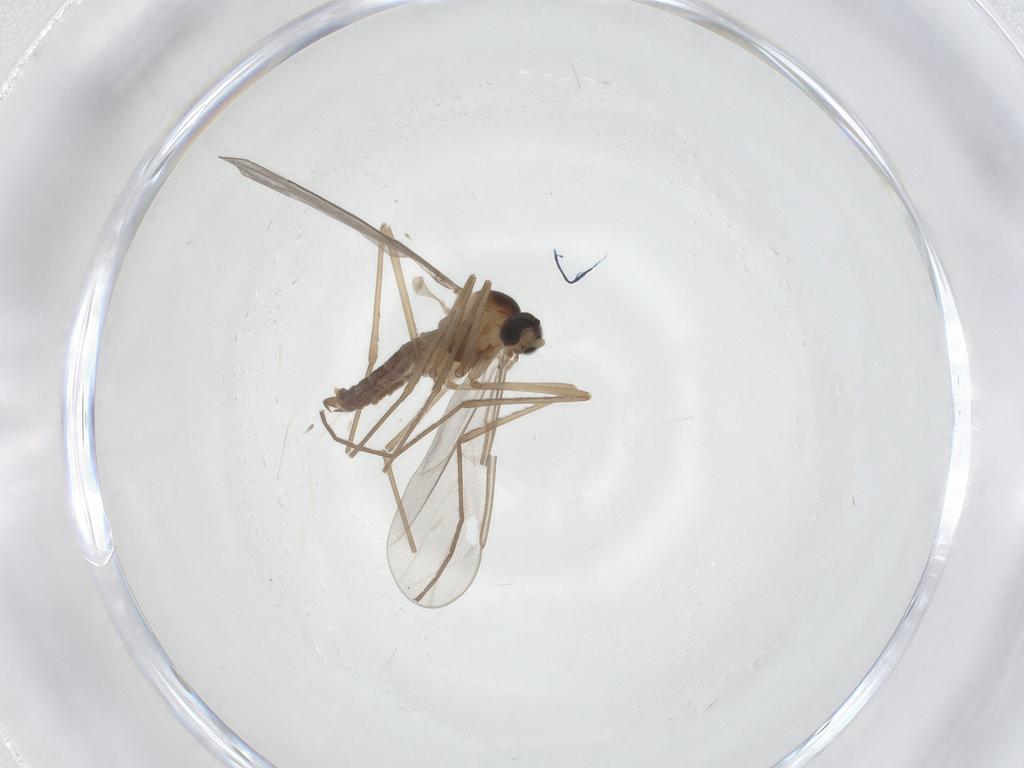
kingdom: Animalia
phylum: Arthropoda
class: Insecta
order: Diptera
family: Cecidomyiidae
